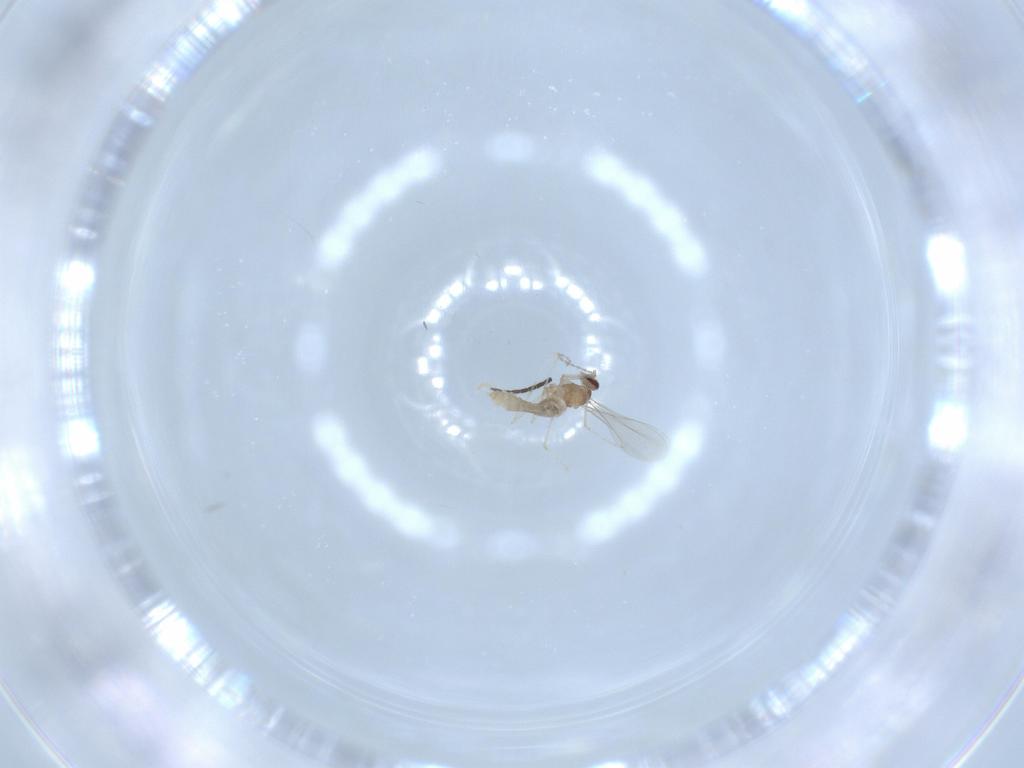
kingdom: Animalia
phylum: Arthropoda
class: Insecta
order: Diptera
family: Sciaridae
